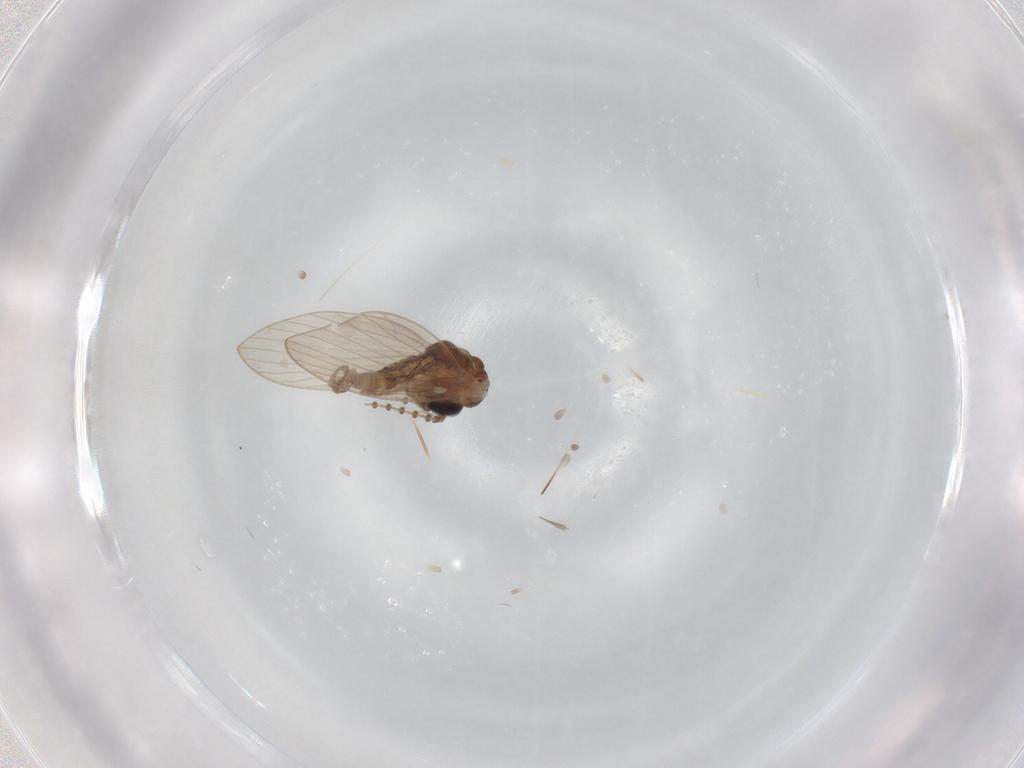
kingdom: Animalia
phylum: Arthropoda
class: Insecta
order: Diptera
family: Psychodidae
